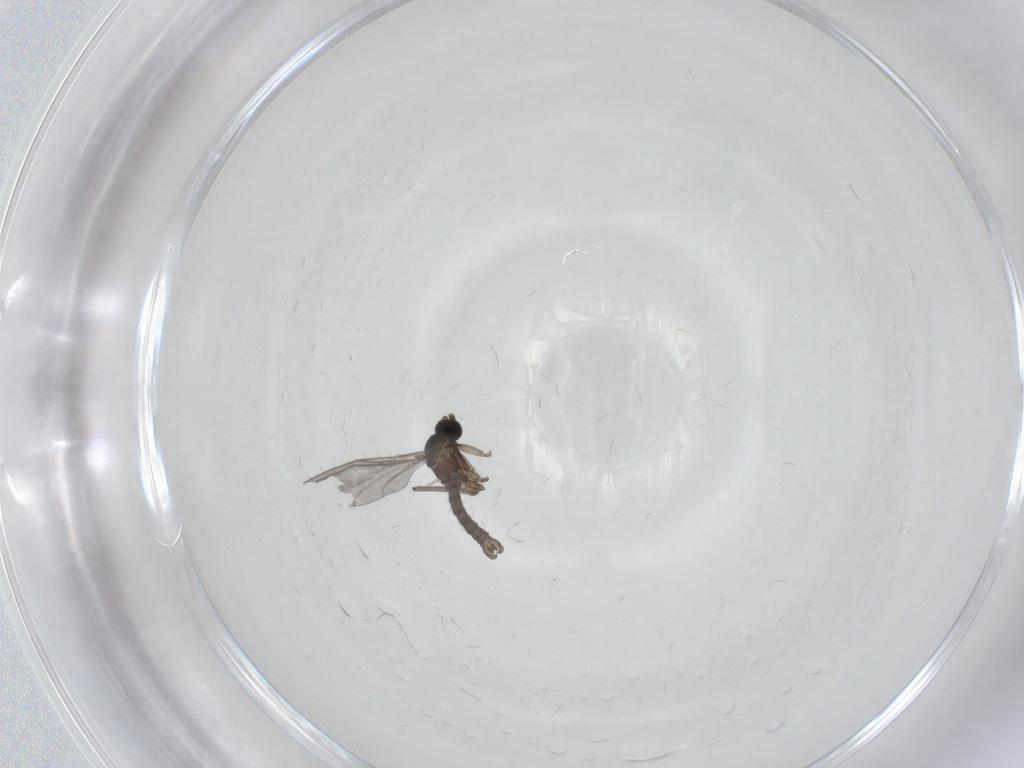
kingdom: Animalia
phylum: Arthropoda
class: Insecta
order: Diptera
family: Sciaridae
